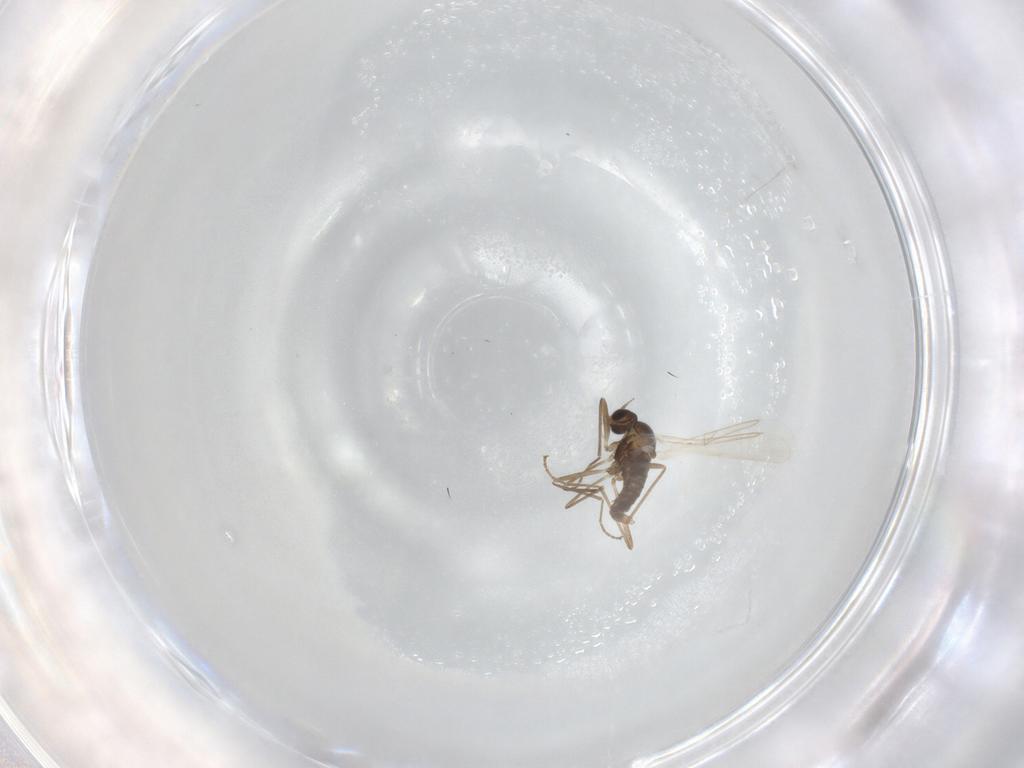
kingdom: Animalia
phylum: Arthropoda
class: Insecta
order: Diptera
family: Cecidomyiidae
